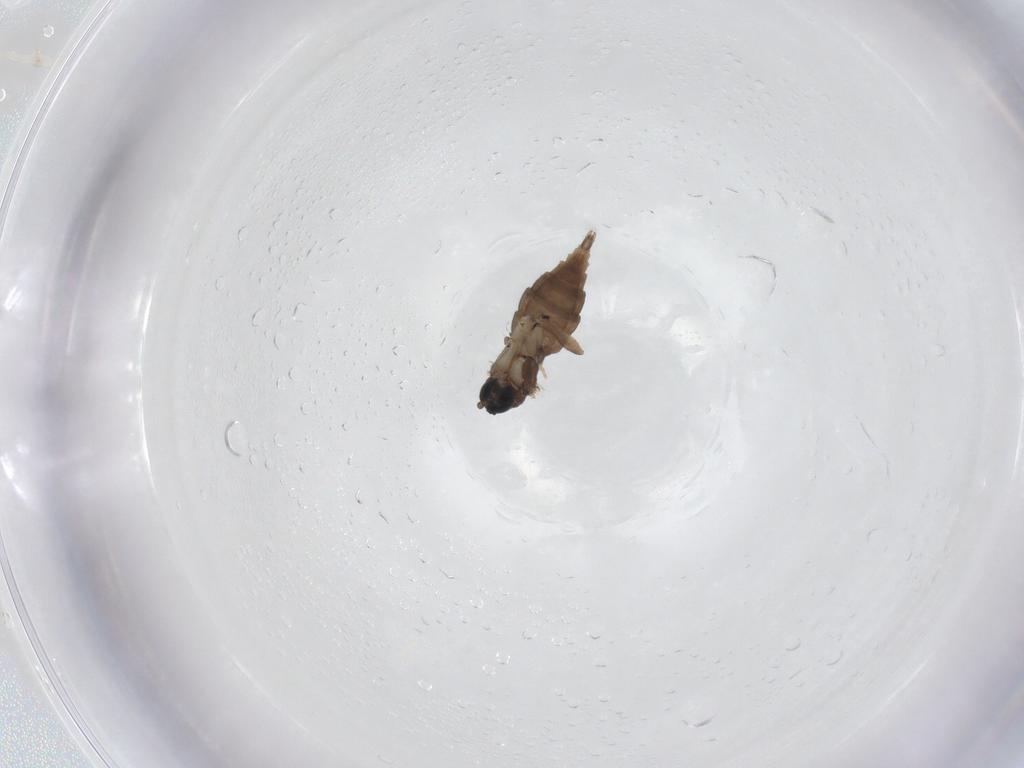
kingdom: Animalia
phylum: Arthropoda
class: Insecta
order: Diptera
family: Sciaridae
